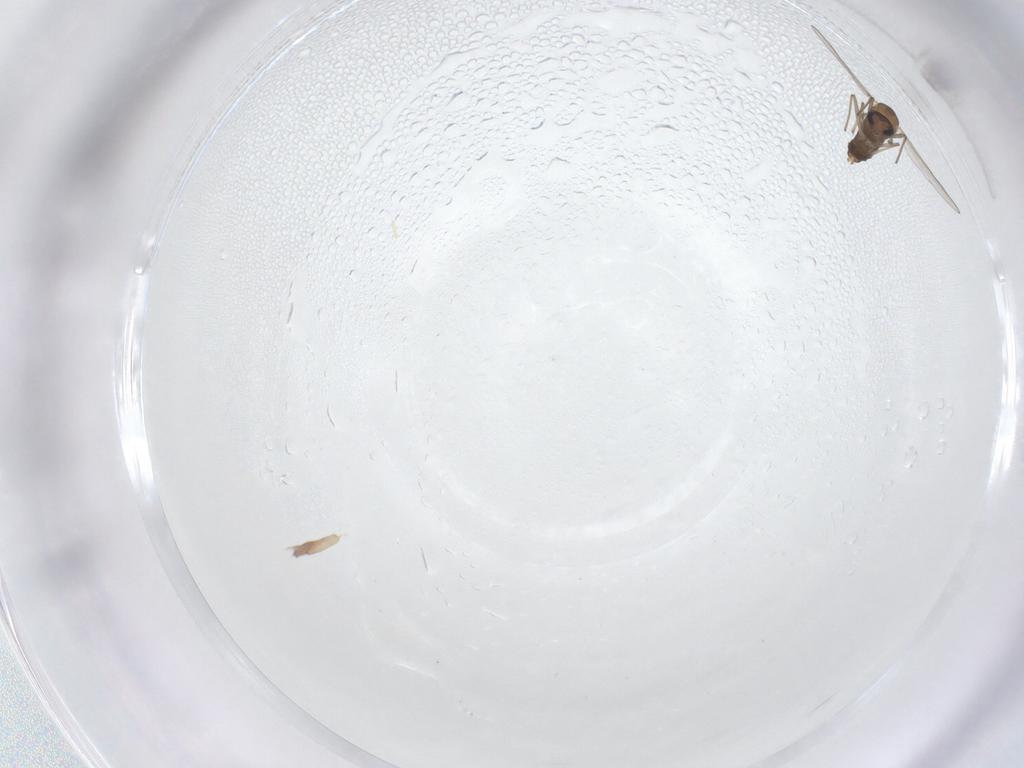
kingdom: Animalia
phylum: Arthropoda
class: Insecta
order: Diptera
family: Chironomidae
